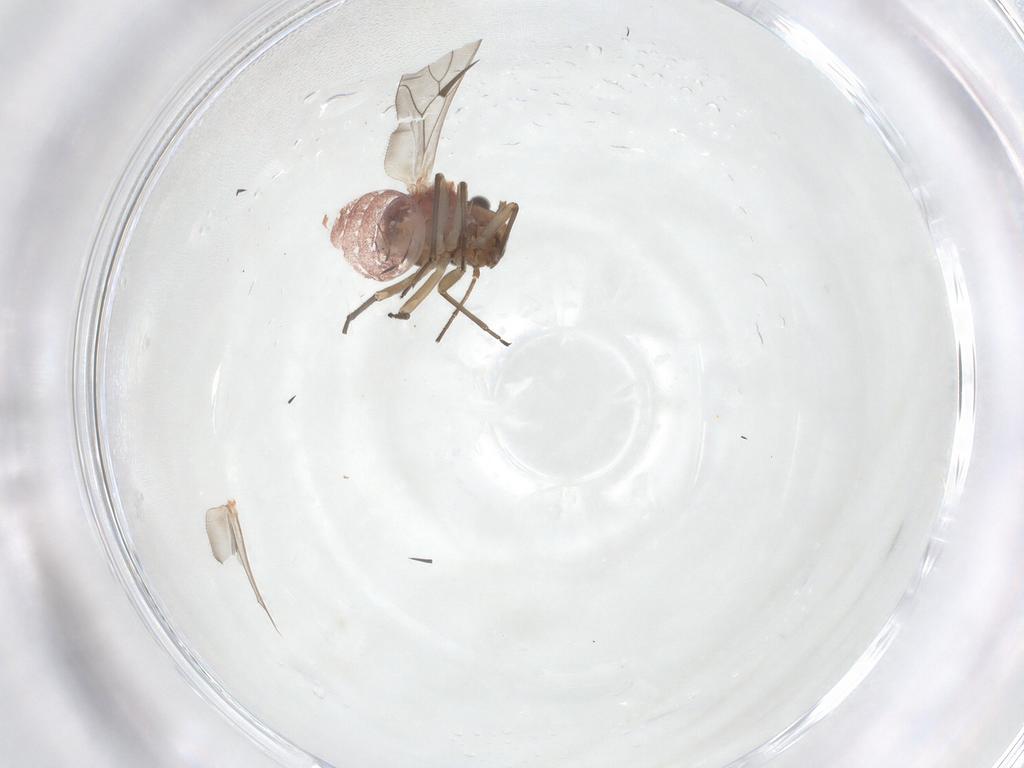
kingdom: Animalia
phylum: Arthropoda
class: Insecta
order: Psocodea
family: Caeciliusidae
